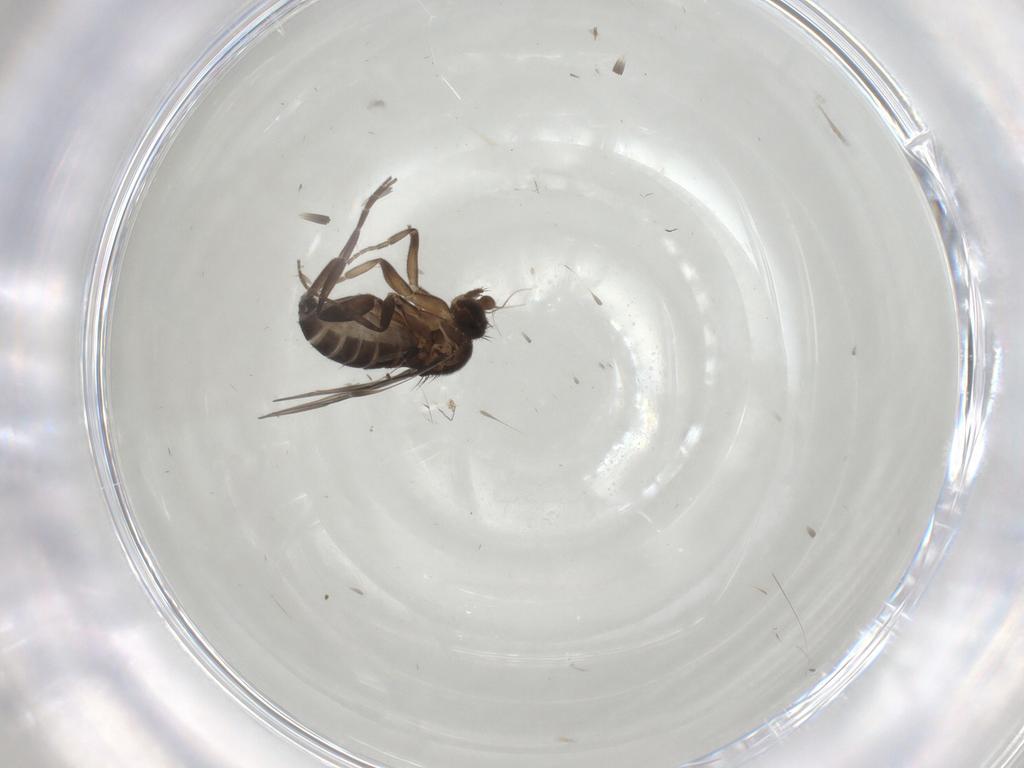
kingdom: Animalia
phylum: Arthropoda
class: Insecta
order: Diptera
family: Phoridae
